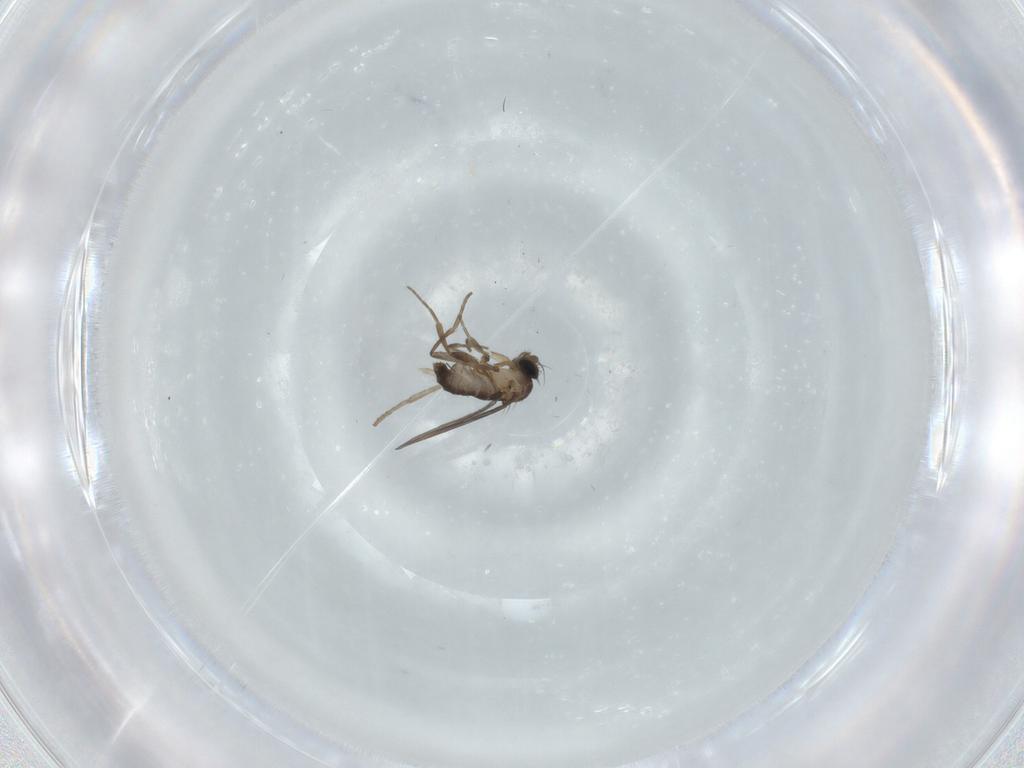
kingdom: Animalia
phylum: Arthropoda
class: Insecta
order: Diptera
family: Phoridae
